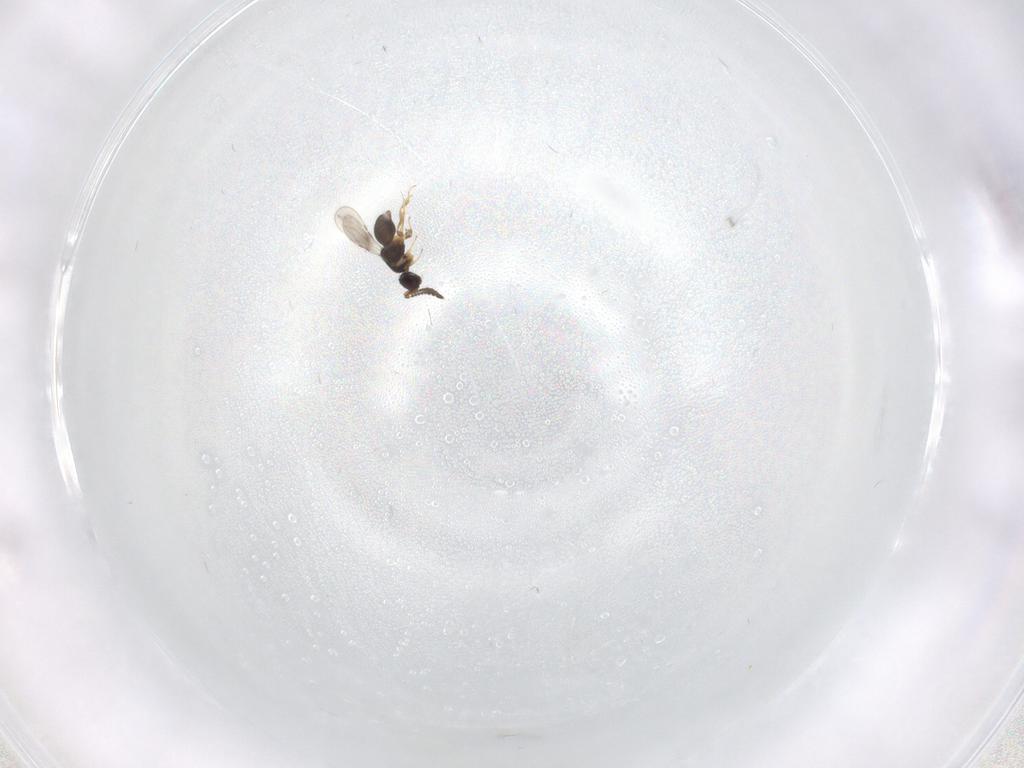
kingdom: Animalia
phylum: Arthropoda
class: Insecta
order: Hymenoptera
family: Ceraphronidae
